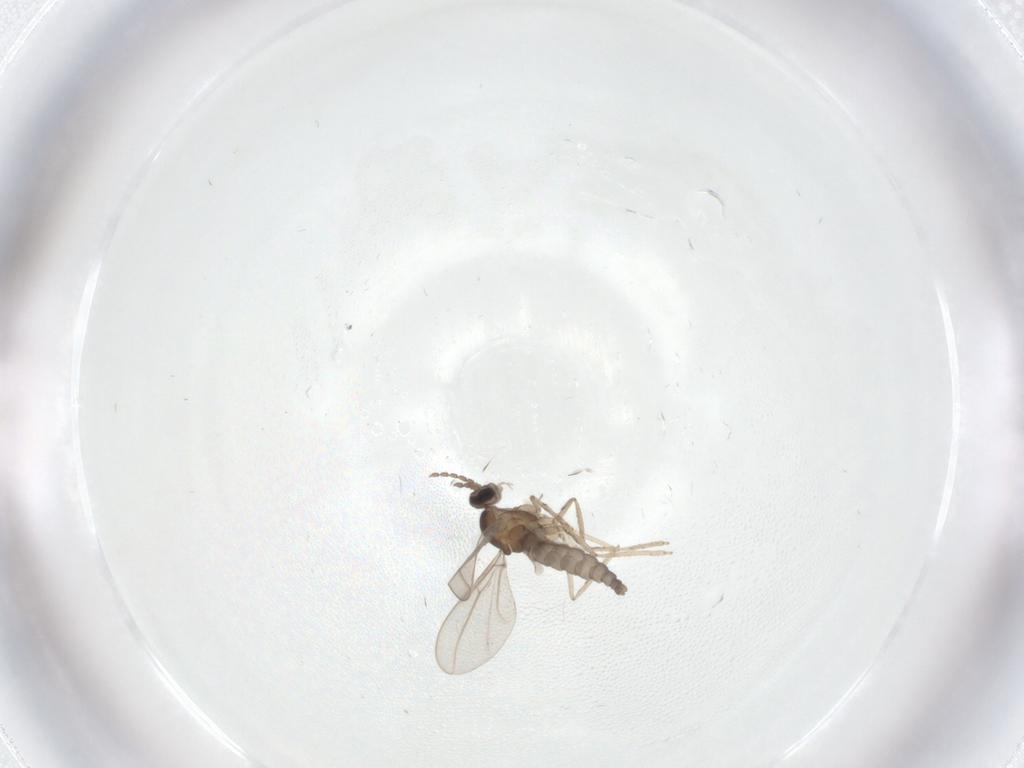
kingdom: Animalia
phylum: Arthropoda
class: Insecta
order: Diptera
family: Cecidomyiidae
